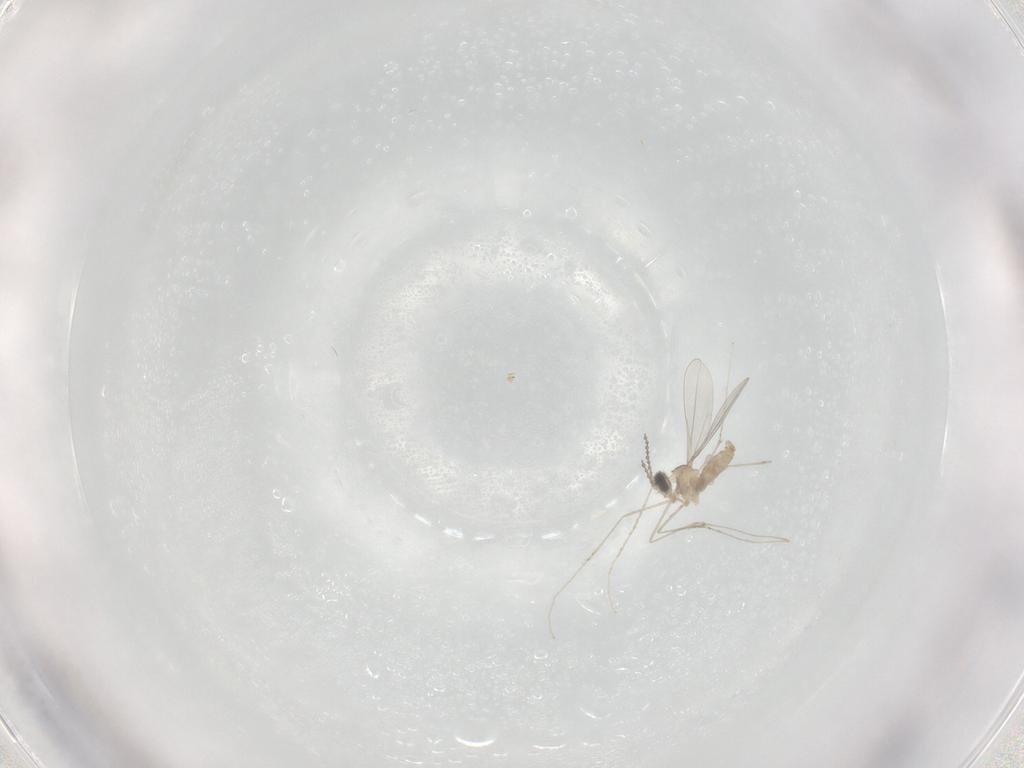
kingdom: Animalia
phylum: Arthropoda
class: Insecta
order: Diptera
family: Cecidomyiidae
